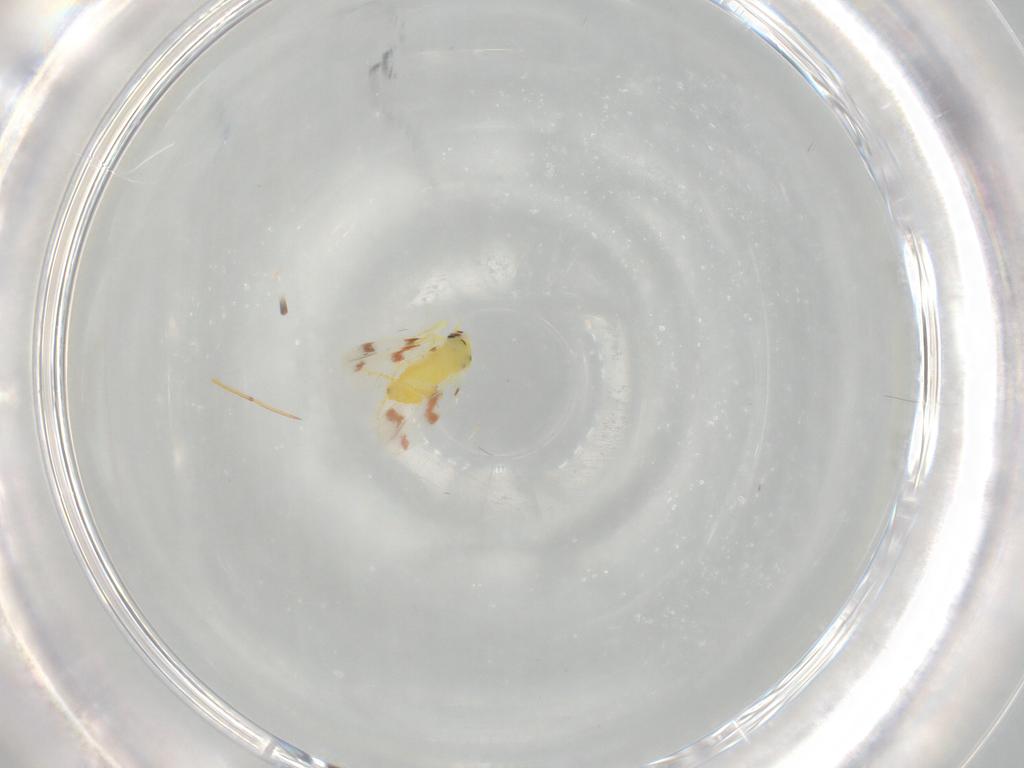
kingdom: Animalia
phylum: Arthropoda
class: Insecta
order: Hemiptera
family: Aleyrodidae
